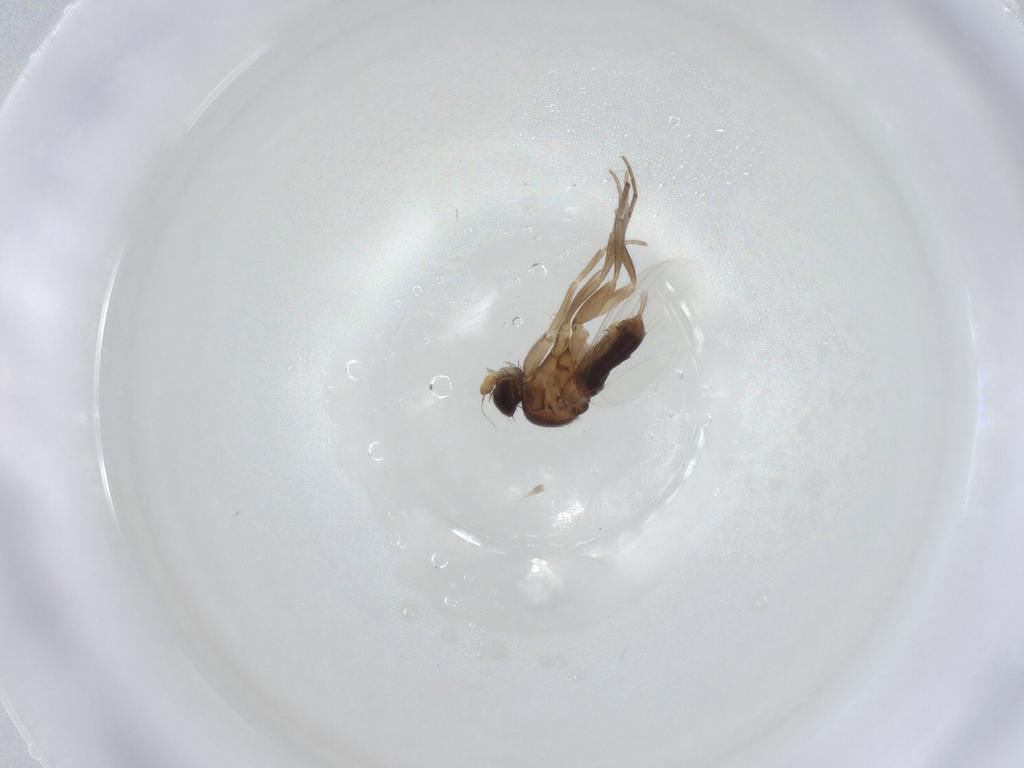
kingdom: Animalia
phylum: Arthropoda
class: Insecta
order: Diptera
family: Phoridae
